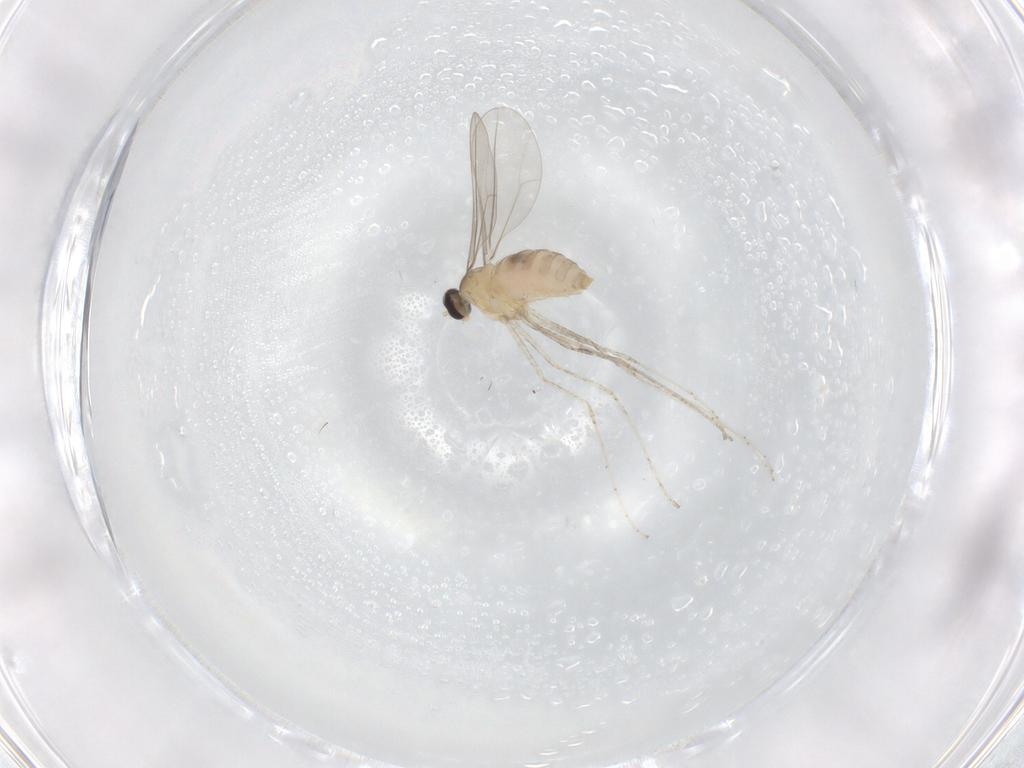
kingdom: Animalia
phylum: Arthropoda
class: Insecta
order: Diptera
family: Cecidomyiidae
